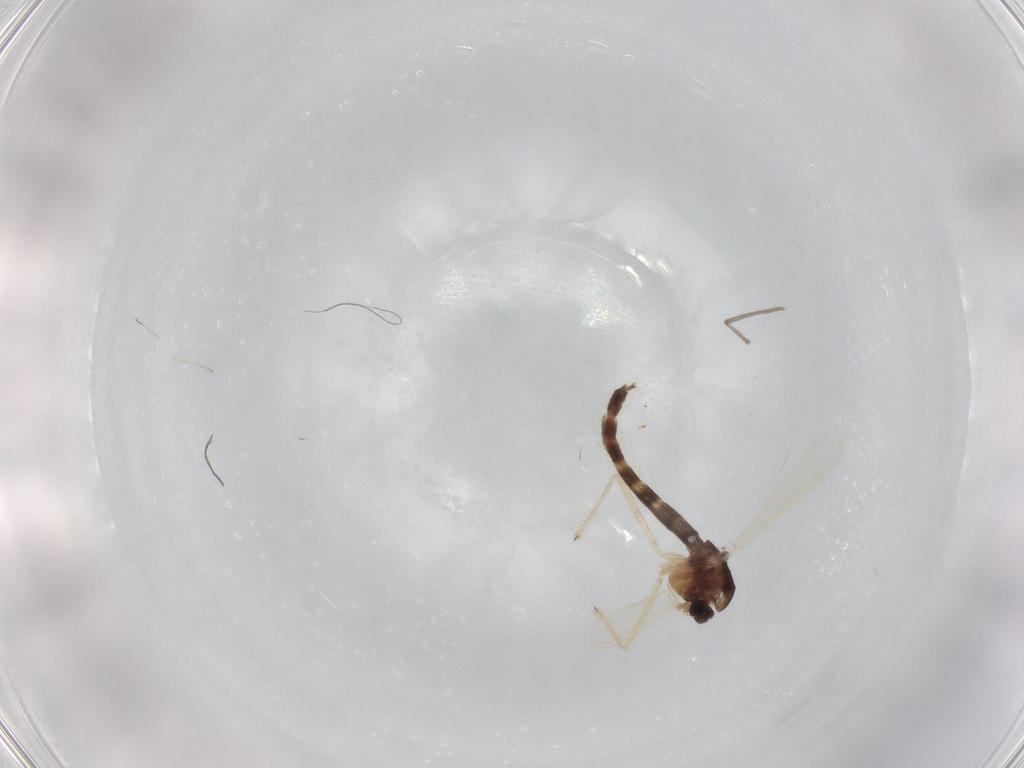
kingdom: Animalia
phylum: Arthropoda
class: Insecta
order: Diptera
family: Chironomidae
